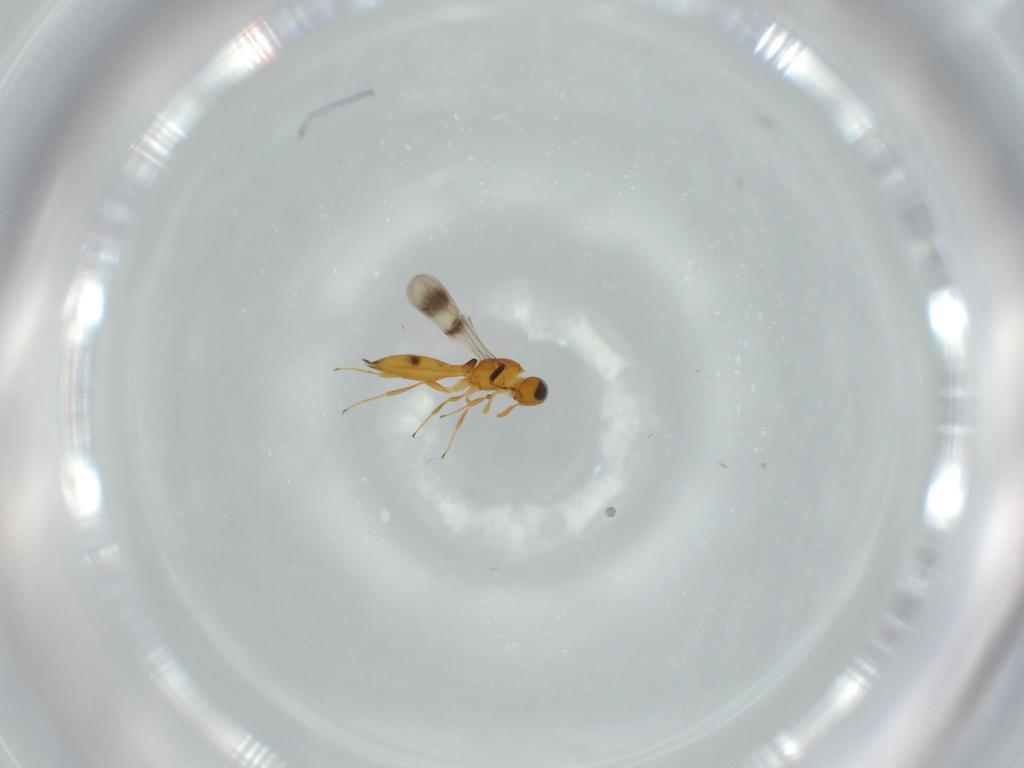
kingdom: Animalia
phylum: Arthropoda
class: Insecta
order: Hymenoptera
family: Scelionidae
